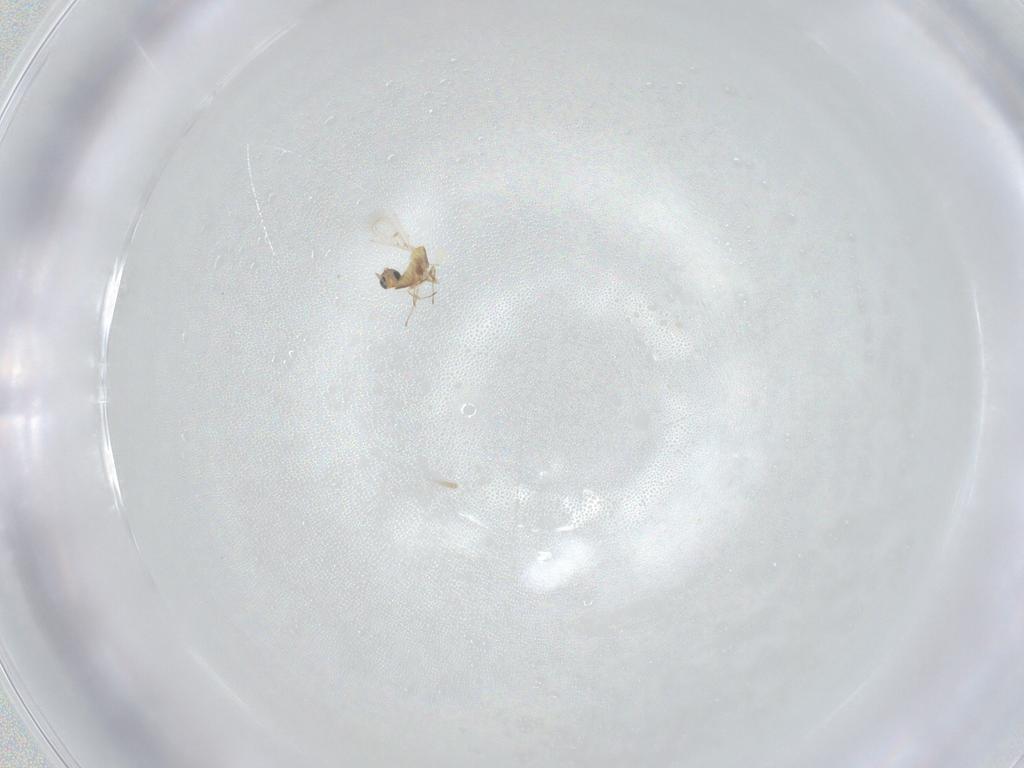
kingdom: Animalia
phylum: Arthropoda
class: Insecta
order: Hymenoptera
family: Trichogrammatidae
